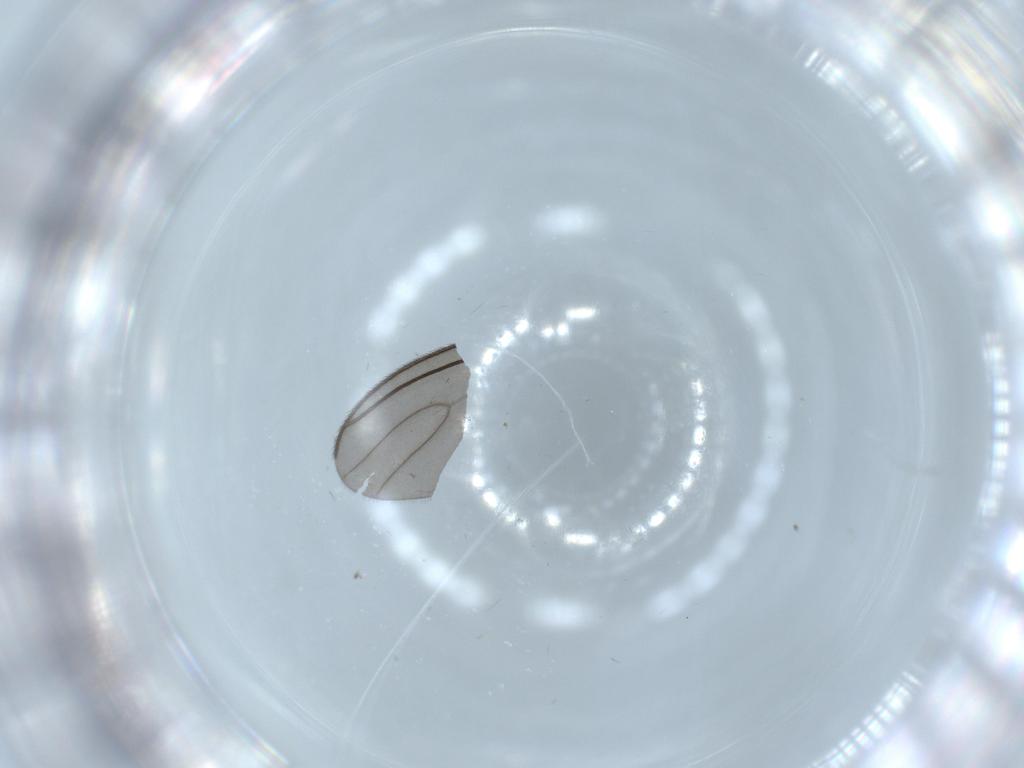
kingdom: Animalia
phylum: Arthropoda
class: Insecta
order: Diptera
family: Sciaridae
